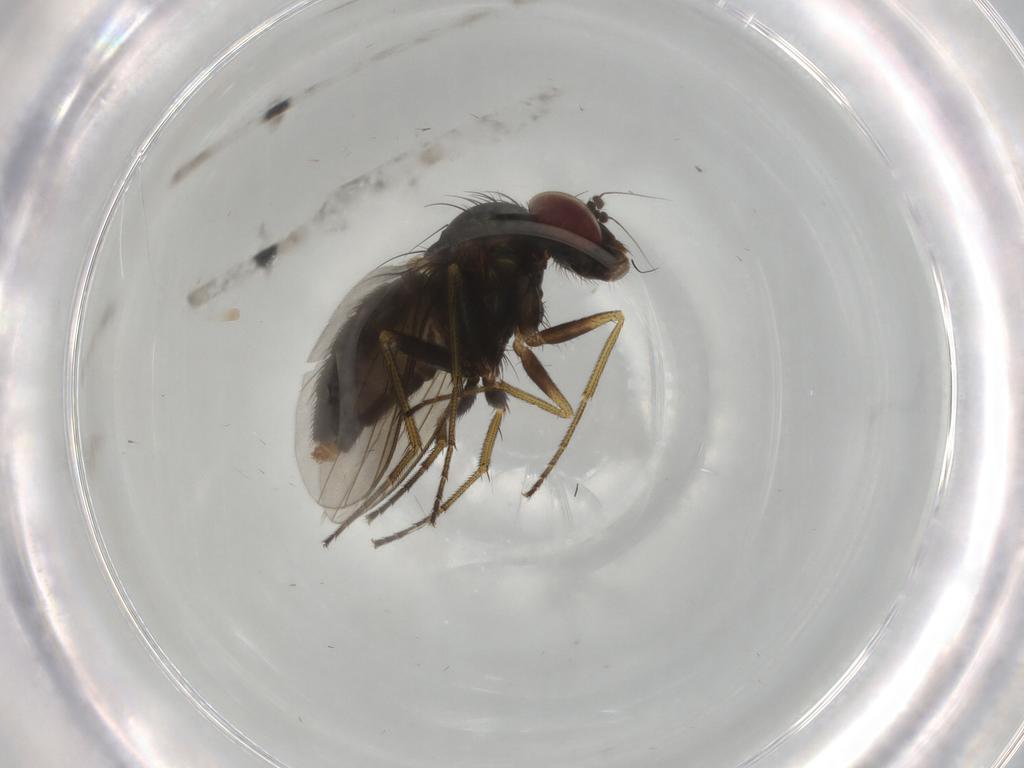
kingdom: Animalia
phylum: Arthropoda
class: Insecta
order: Diptera
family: Dolichopodidae
